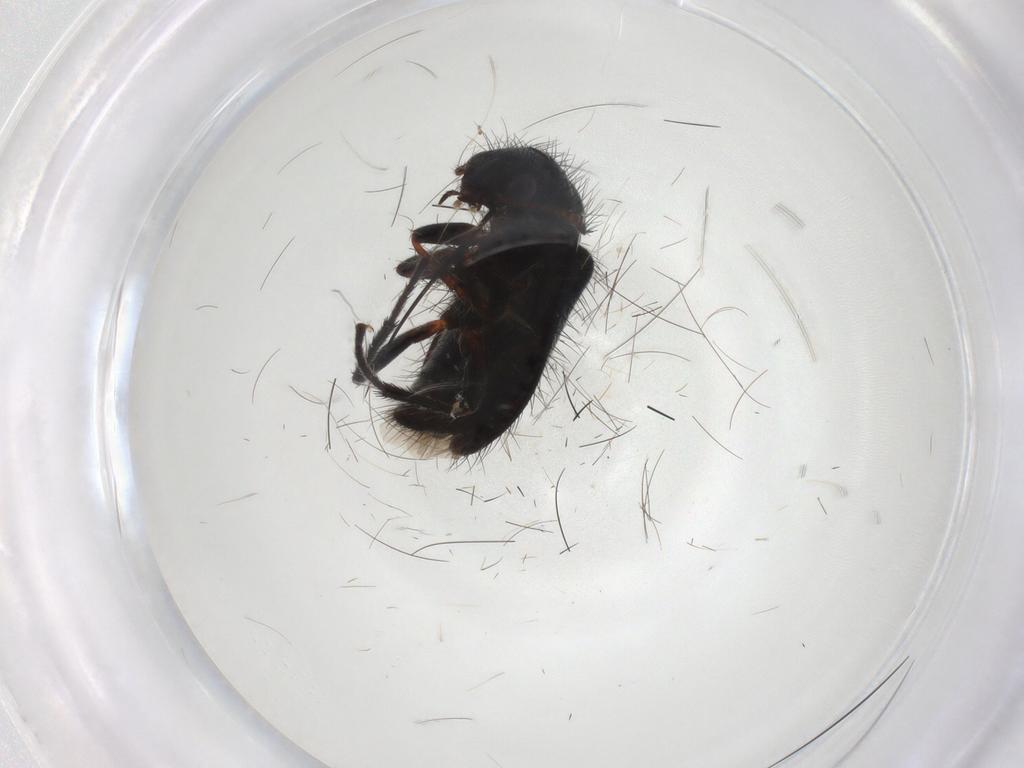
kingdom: Animalia
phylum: Arthropoda
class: Insecta
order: Coleoptera
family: Melyridae
